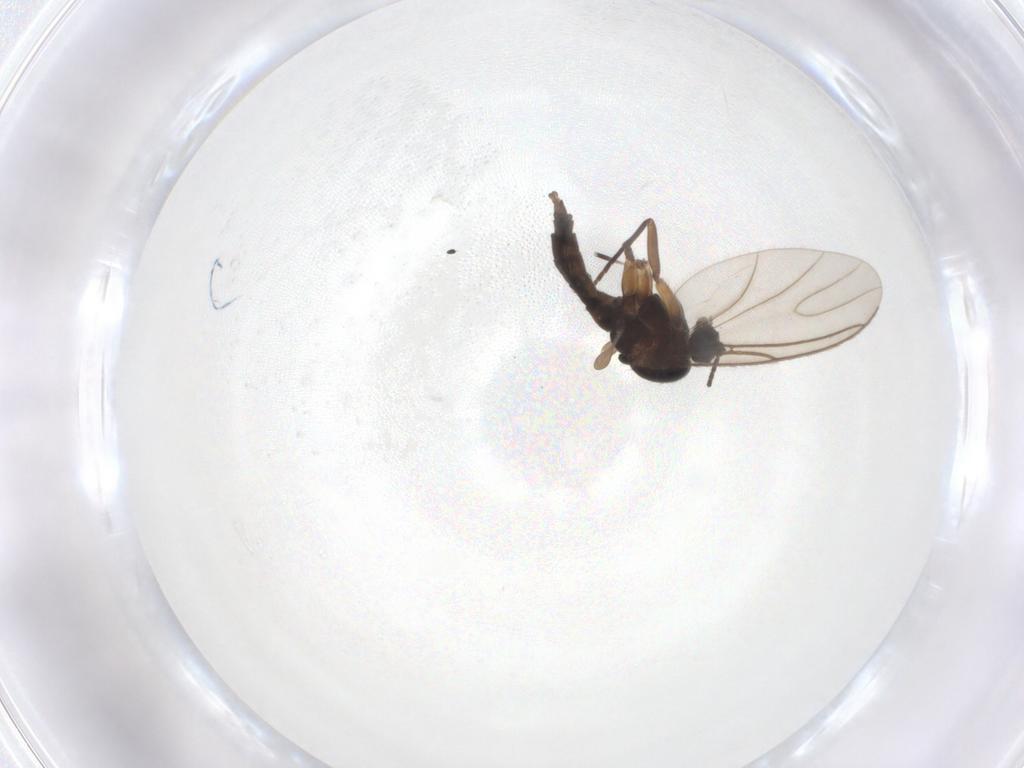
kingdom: Animalia
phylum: Arthropoda
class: Insecta
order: Diptera
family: Sciaridae
